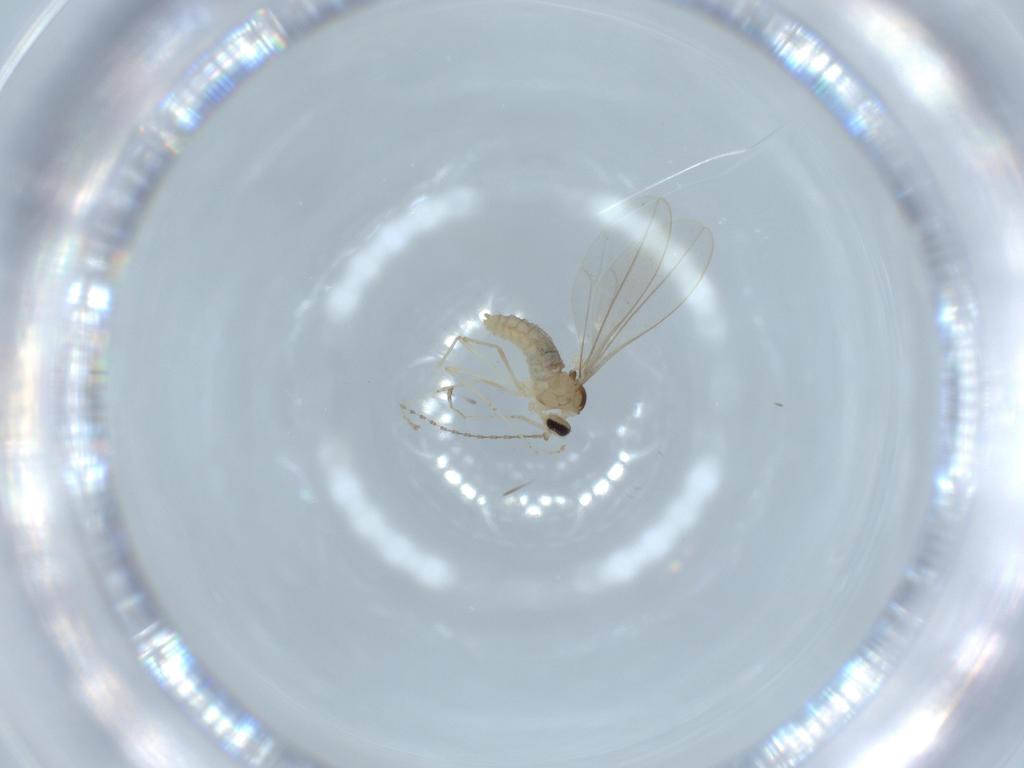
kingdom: Animalia
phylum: Arthropoda
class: Insecta
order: Diptera
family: Cecidomyiidae
